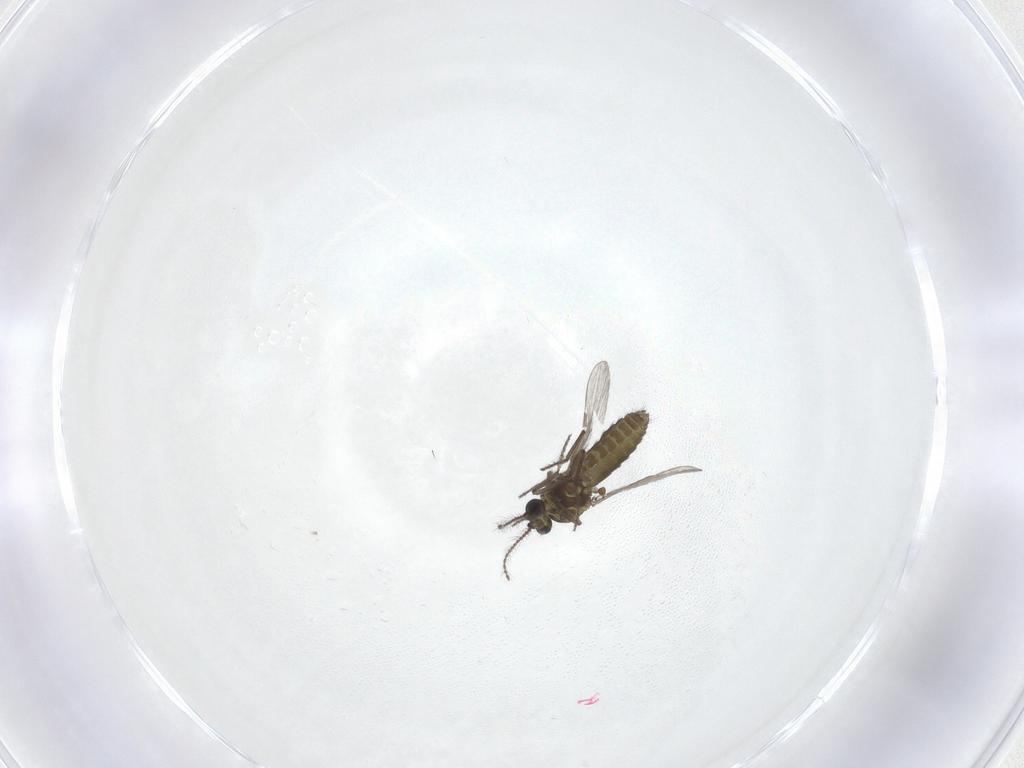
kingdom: Animalia
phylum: Arthropoda
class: Insecta
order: Diptera
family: Ceratopogonidae
